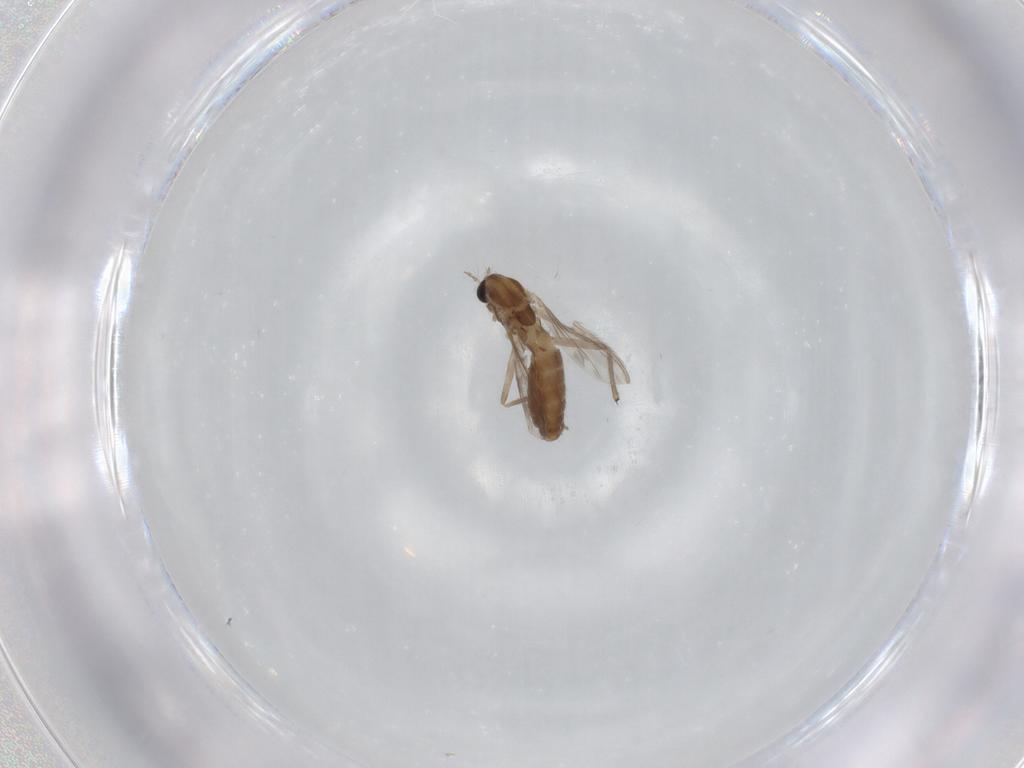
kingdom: Animalia
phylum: Arthropoda
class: Insecta
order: Diptera
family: Chironomidae
